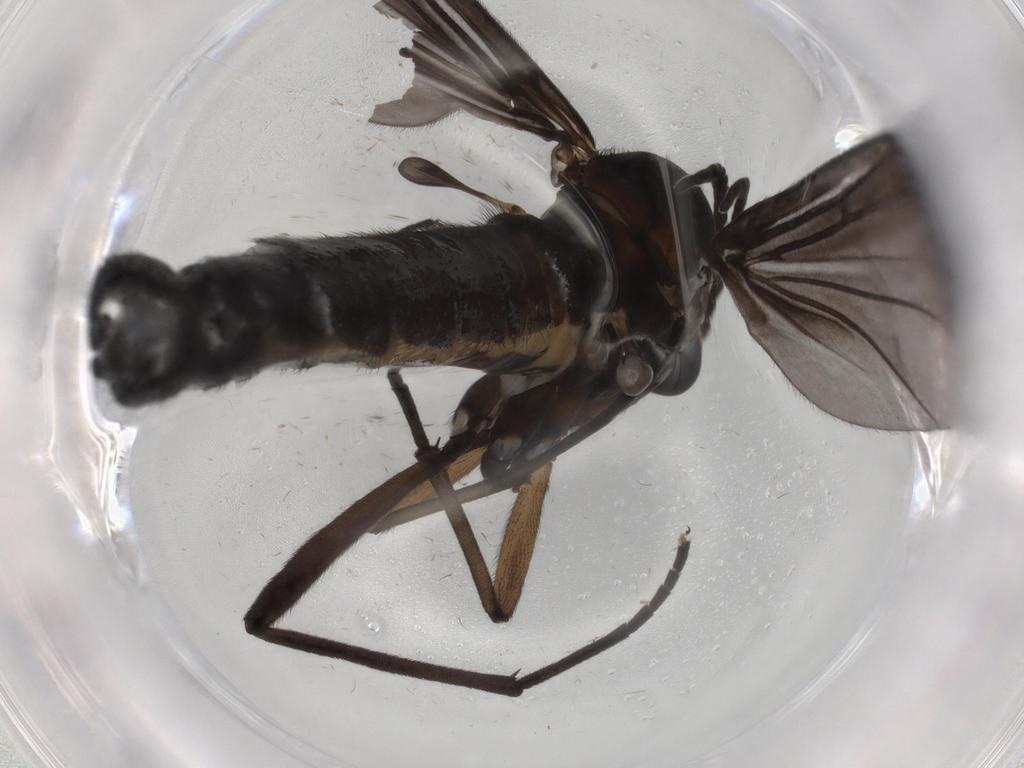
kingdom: Animalia
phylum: Arthropoda
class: Insecta
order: Diptera
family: Sciaridae
